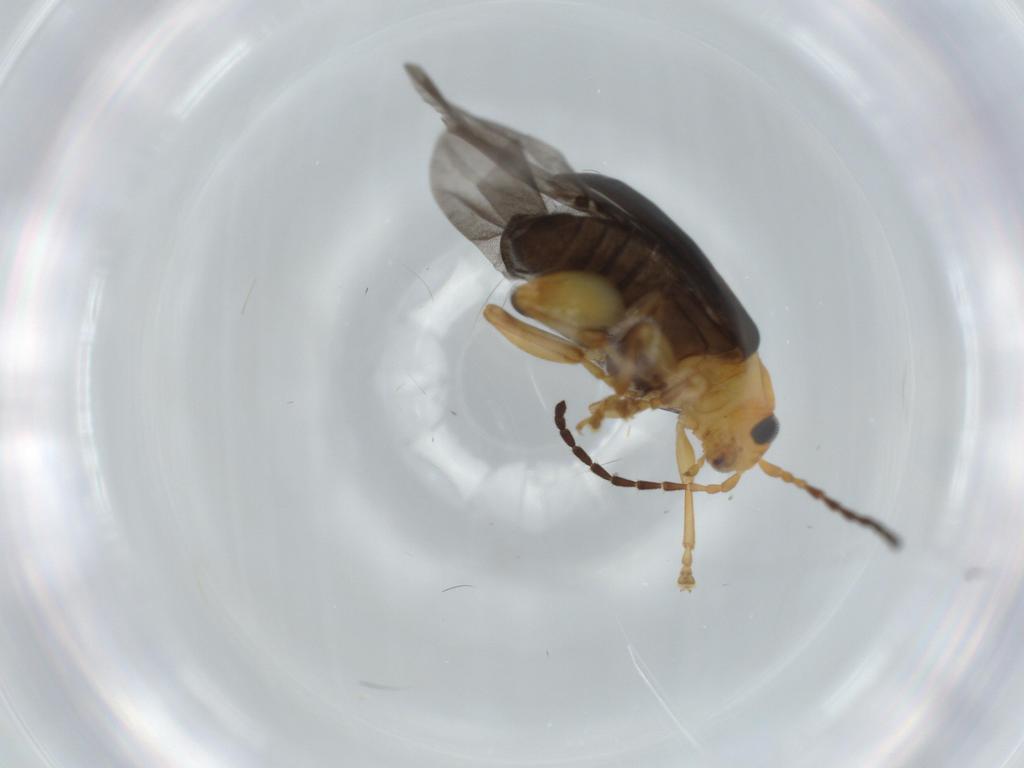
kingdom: Animalia
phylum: Arthropoda
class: Insecta
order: Coleoptera
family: Chrysomelidae
